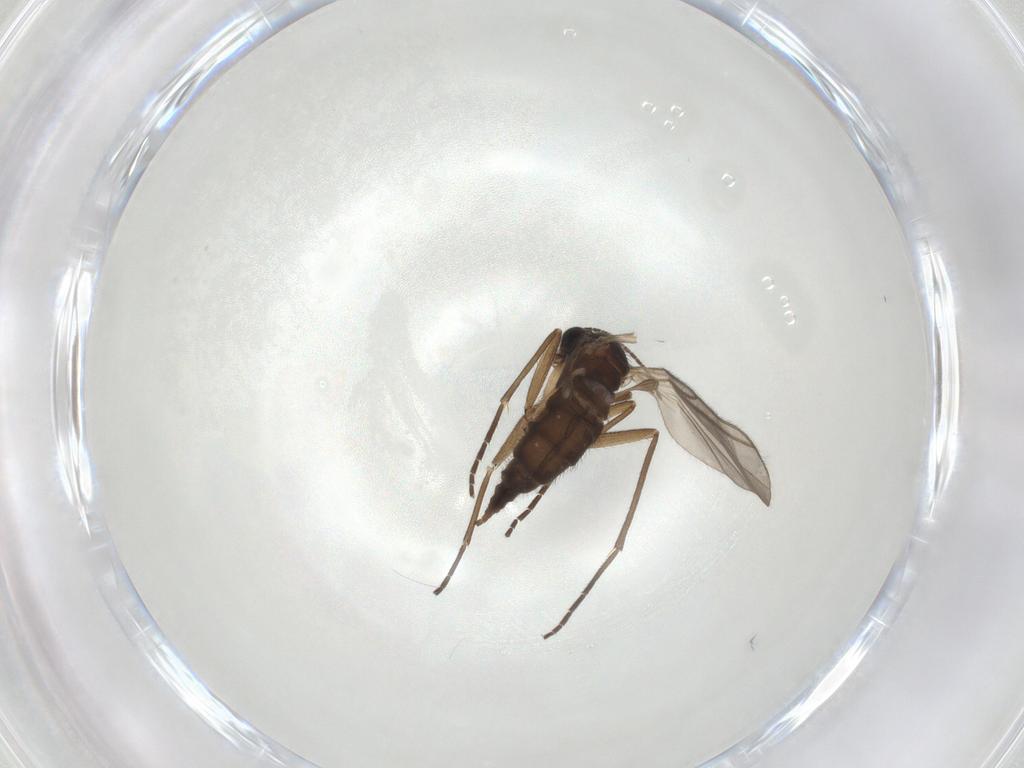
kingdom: Animalia
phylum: Arthropoda
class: Insecta
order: Diptera
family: Sciaridae
